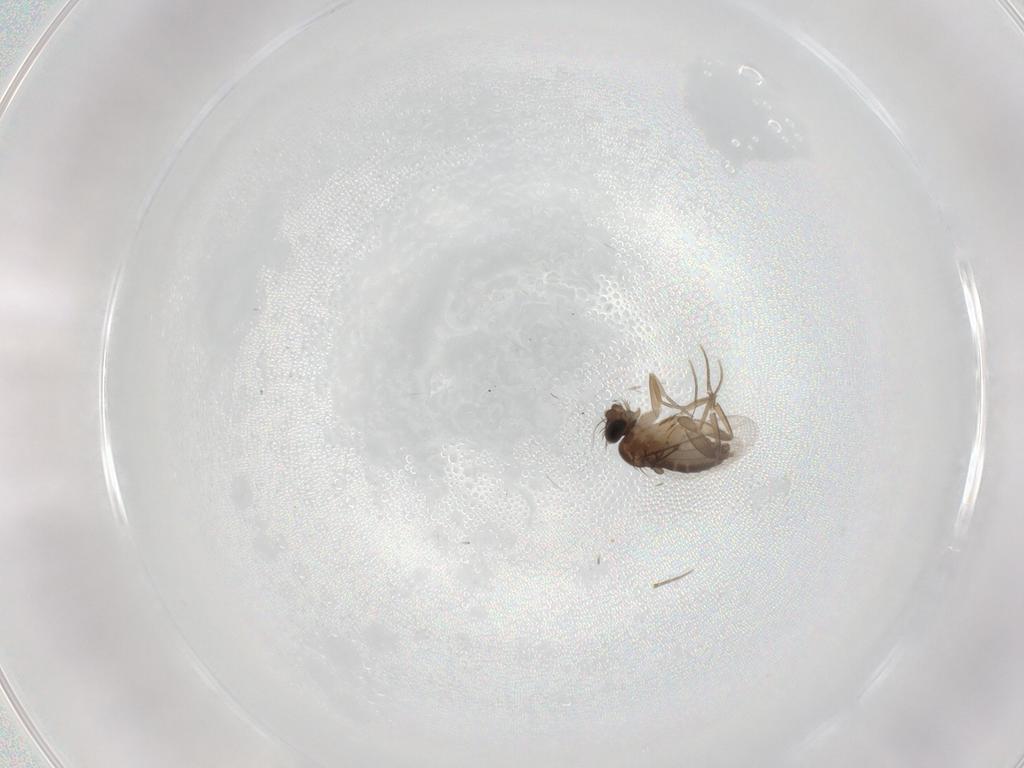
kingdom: Animalia
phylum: Arthropoda
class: Insecta
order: Diptera
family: Phoridae
